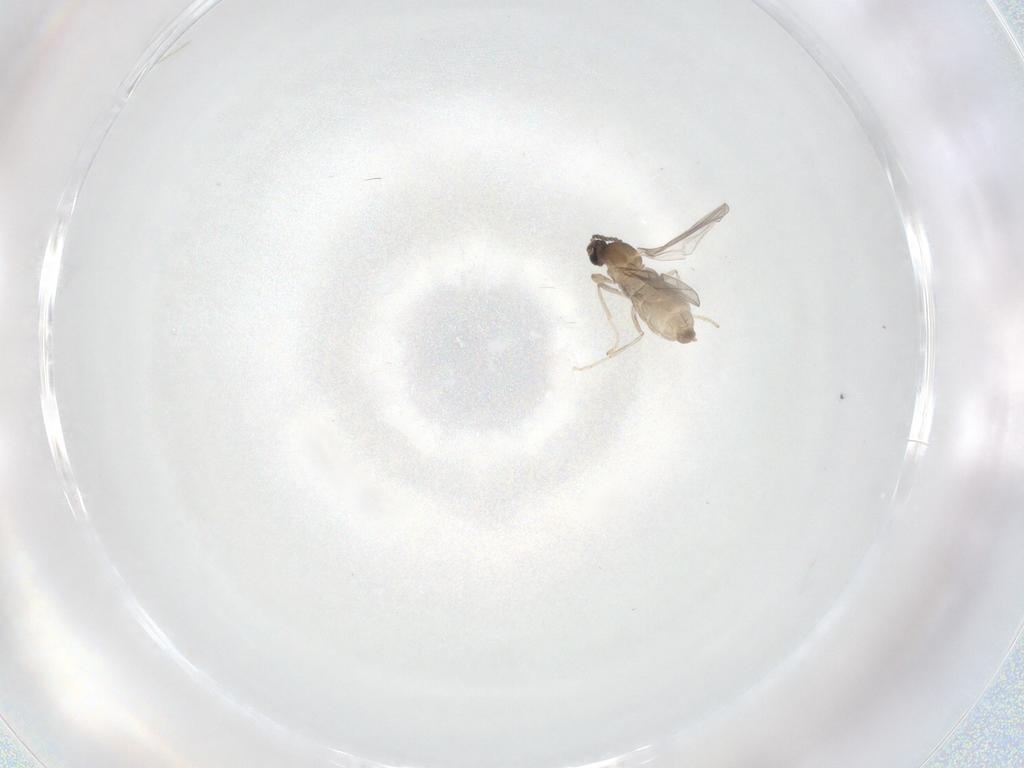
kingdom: Animalia
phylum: Arthropoda
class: Insecta
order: Diptera
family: Cecidomyiidae
